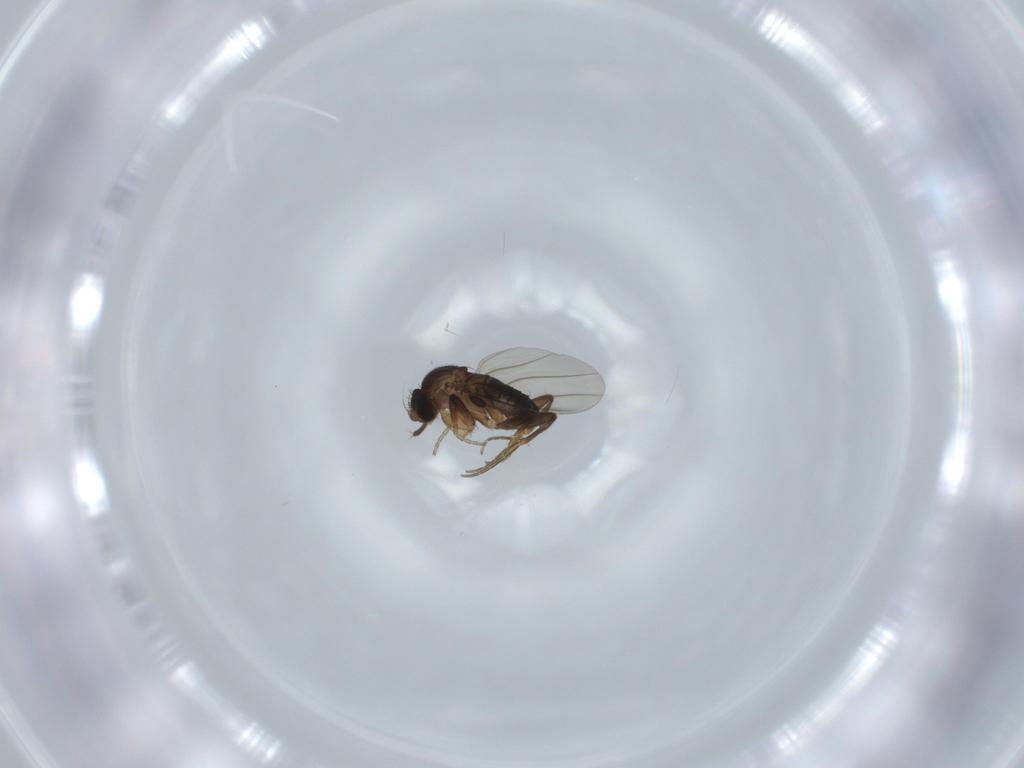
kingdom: Animalia
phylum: Arthropoda
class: Insecta
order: Diptera
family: Phoridae
